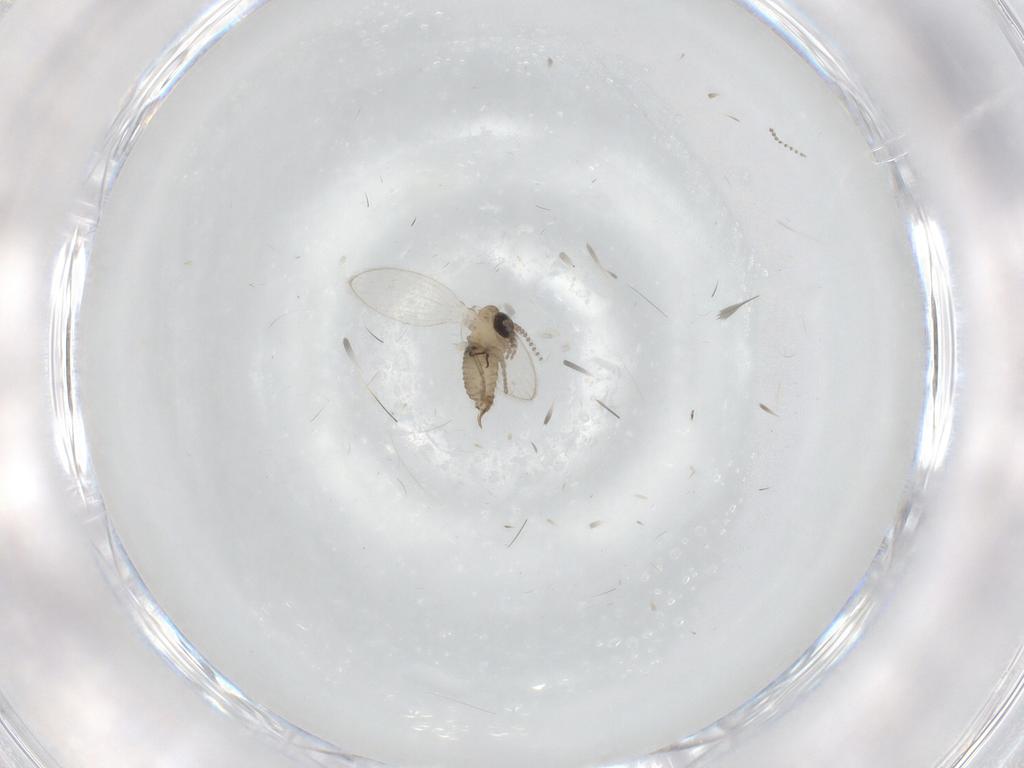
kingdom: Animalia
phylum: Arthropoda
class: Insecta
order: Diptera
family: Psychodidae
